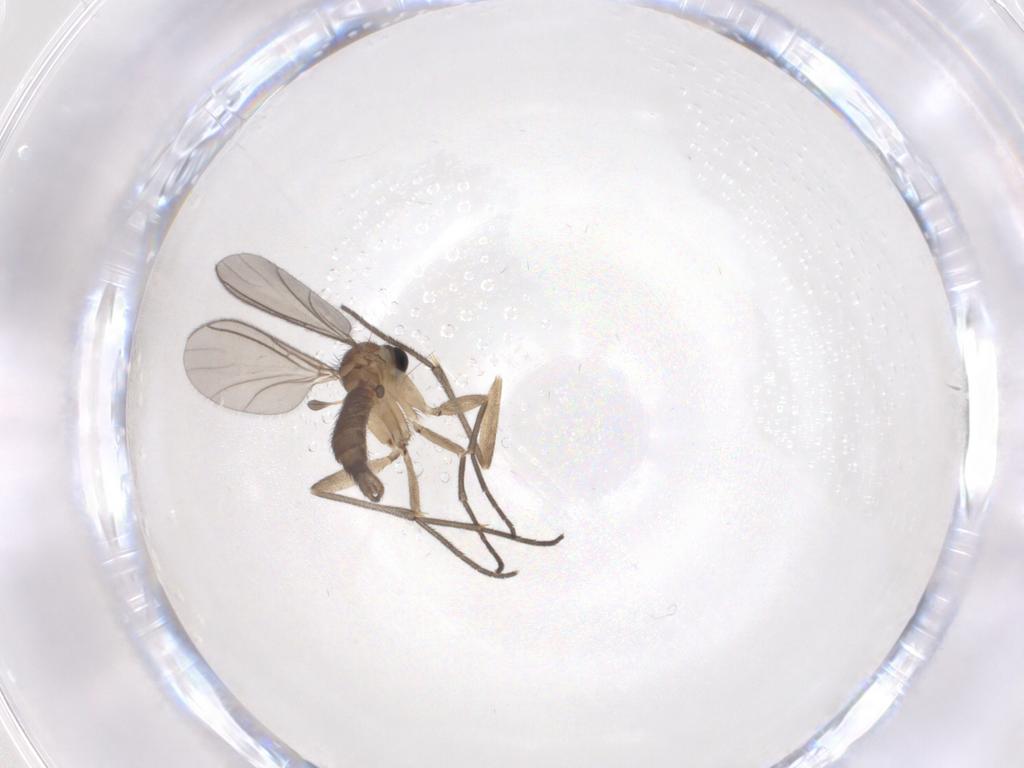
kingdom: Animalia
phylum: Arthropoda
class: Insecta
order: Diptera
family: Sciaridae
